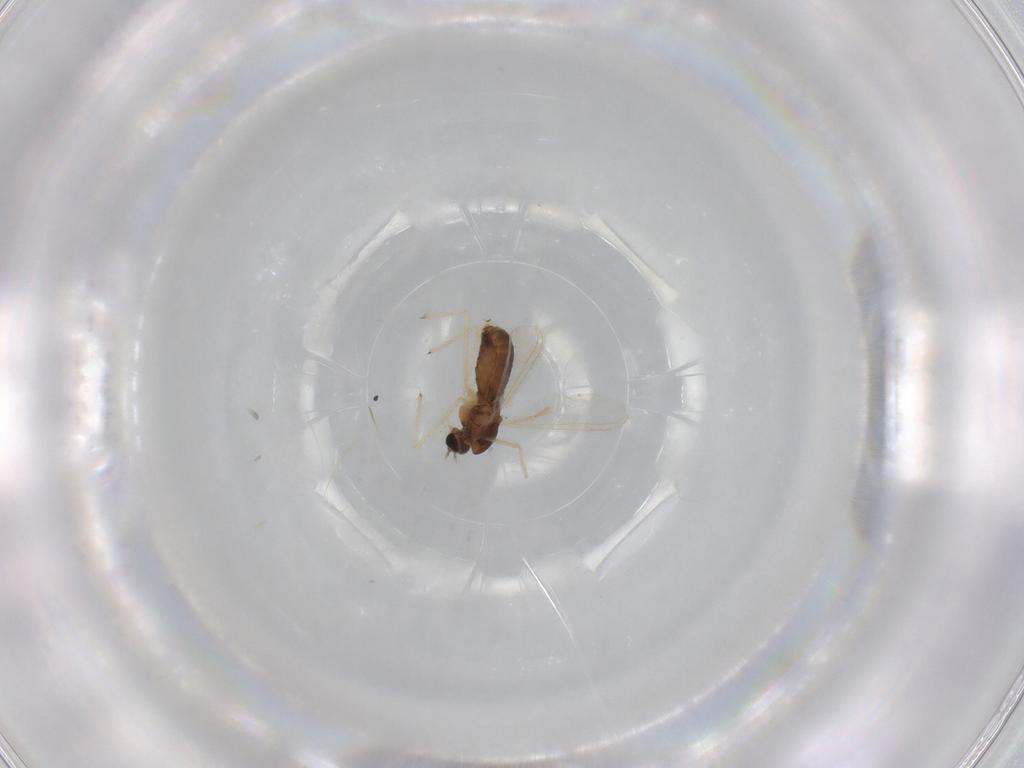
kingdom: Animalia
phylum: Arthropoda
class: Insecta
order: Diptera
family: Chironomidae
